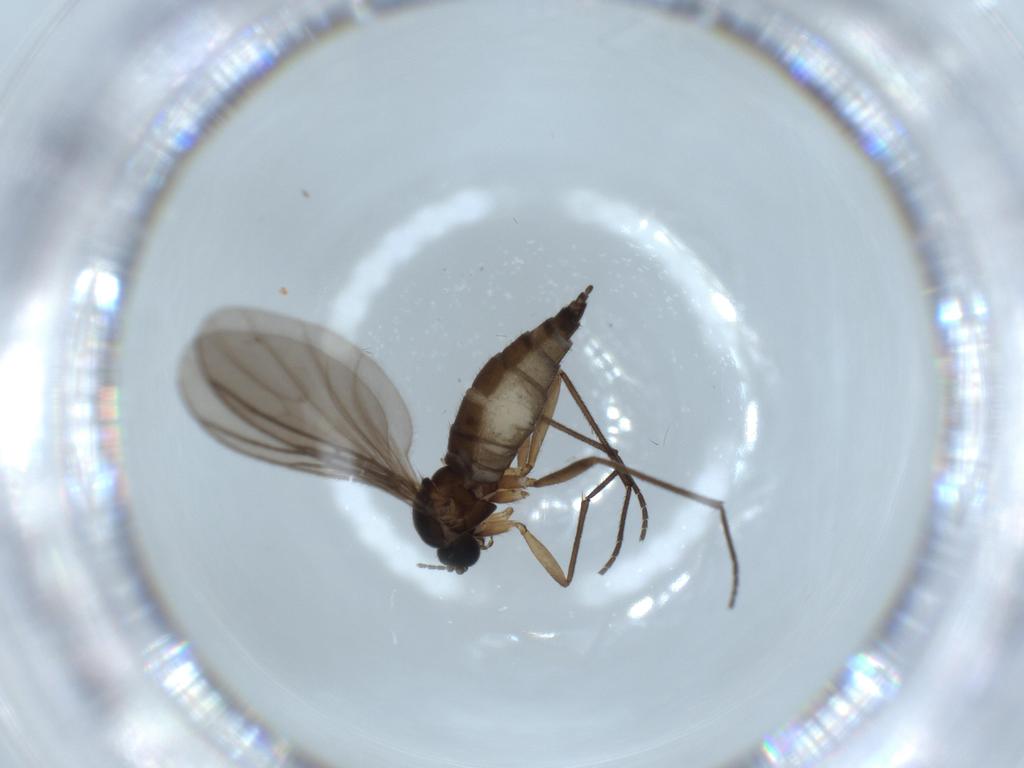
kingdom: Animalia
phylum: Arthropoda
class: Insecta
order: Diptera
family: Sciaridae
